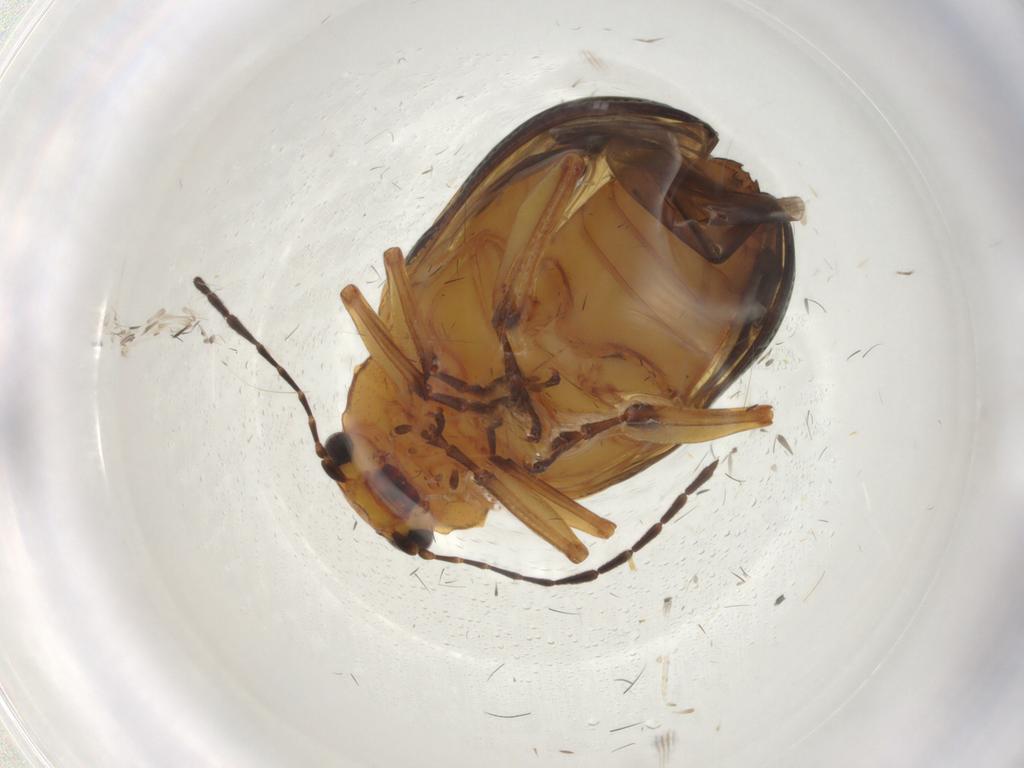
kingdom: Animalia
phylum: Arthropoda
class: Insecta
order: Coleoptera
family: Chrysomelidae
